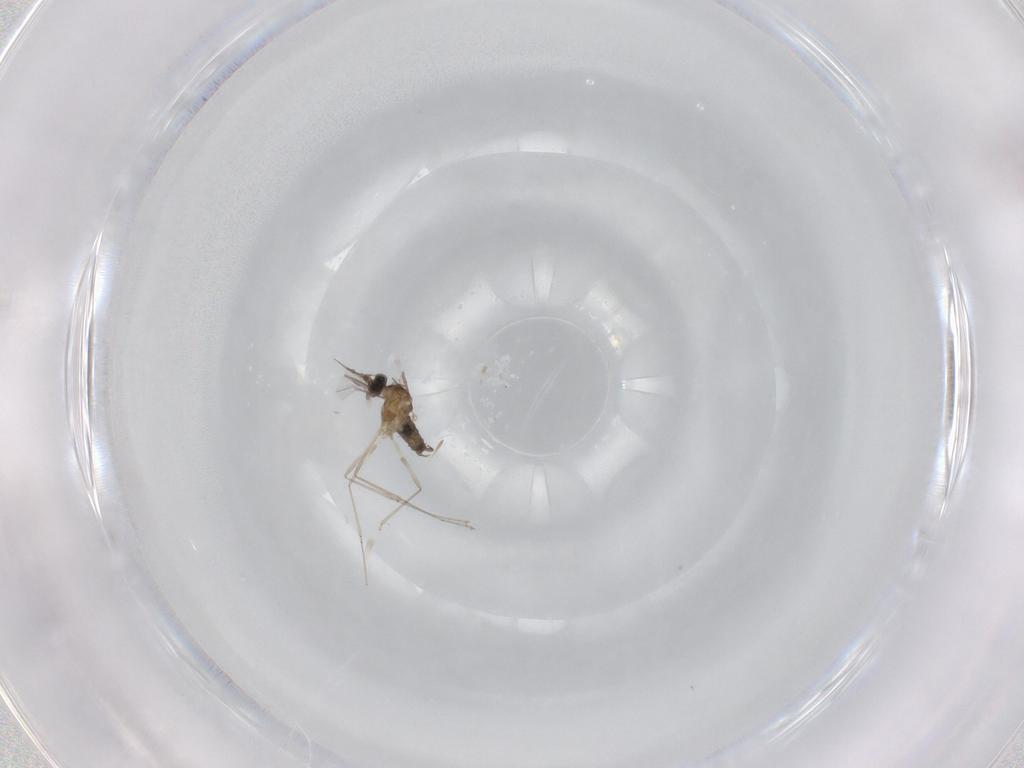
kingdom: Animalia
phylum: Arthropoda
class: Insecta
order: Diptera
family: Cecidomyiidae
